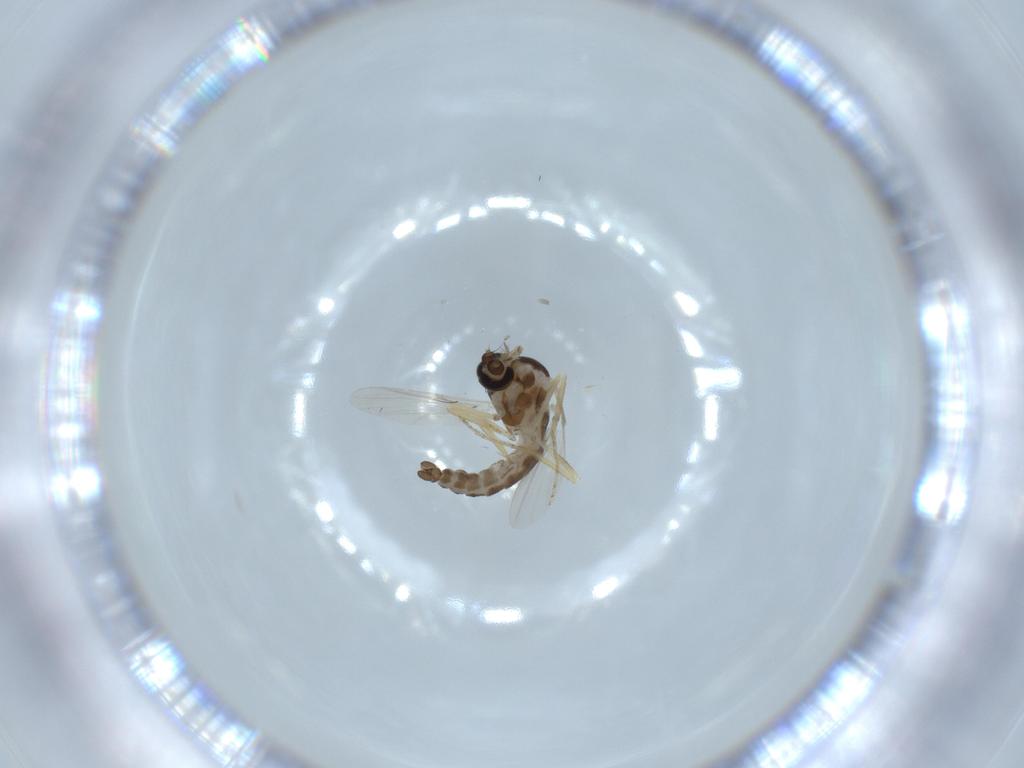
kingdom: Animalia
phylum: Arthropoda
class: Insecta
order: Diptera
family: Ceratopogonidae
